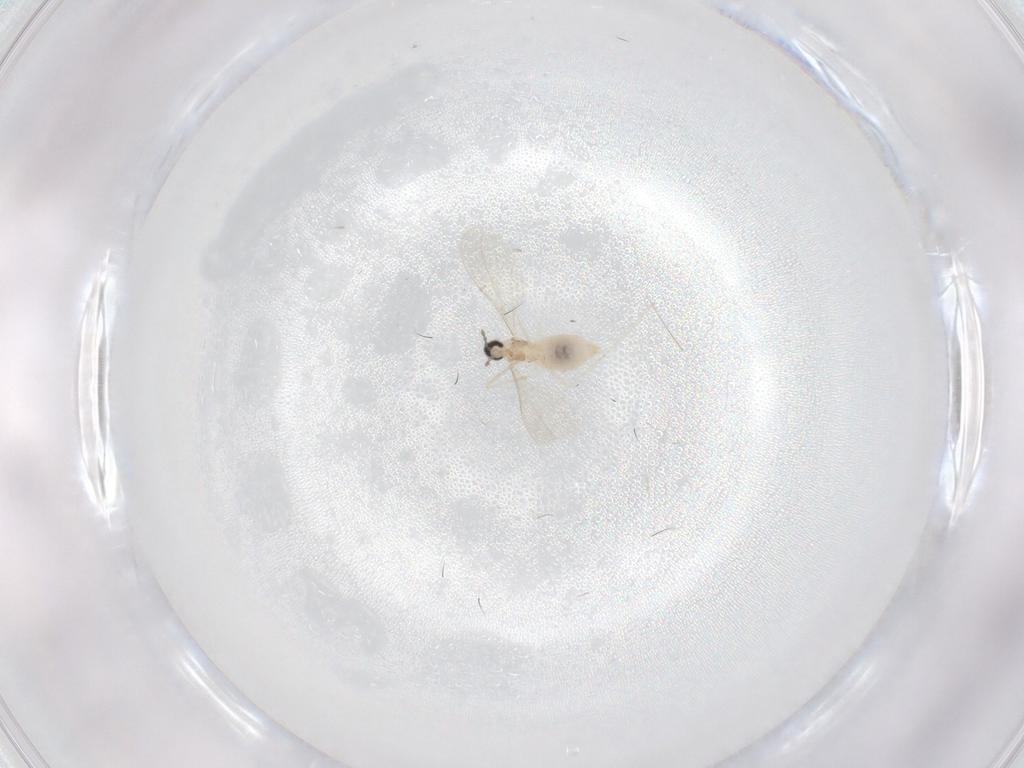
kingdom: Animalia
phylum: Arthropoda
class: Insecta
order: Diptera
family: Cecidomyiidae
